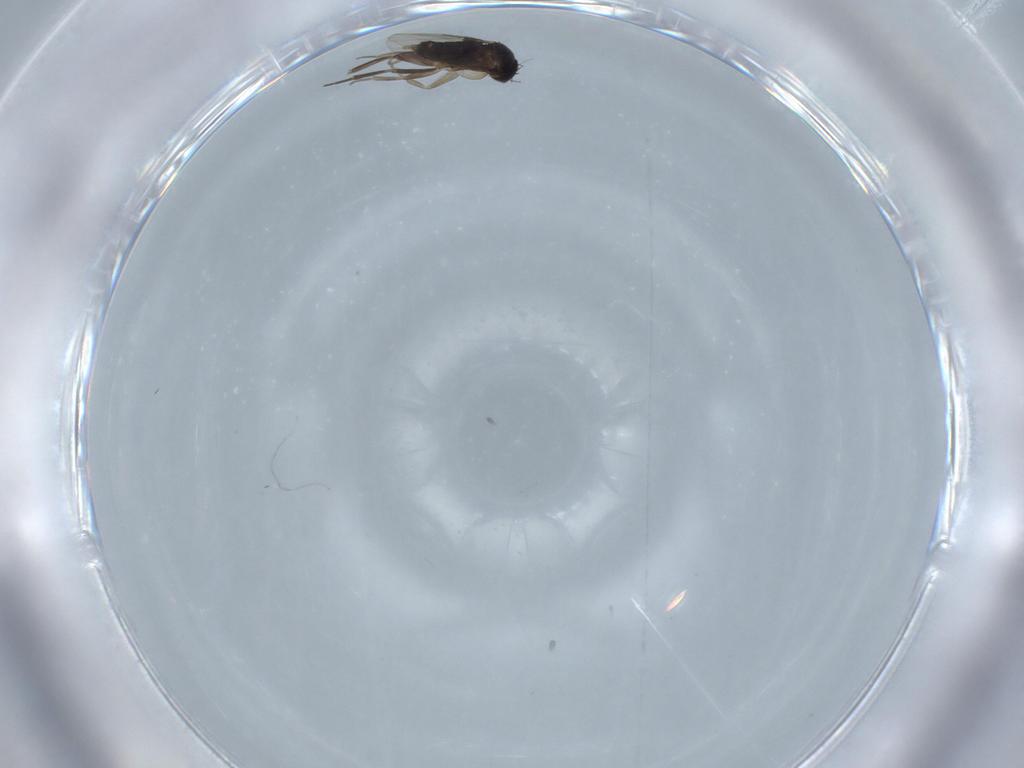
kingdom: Animalia
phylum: Arthropoda
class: Insecta
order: Diptera
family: Phoridae
